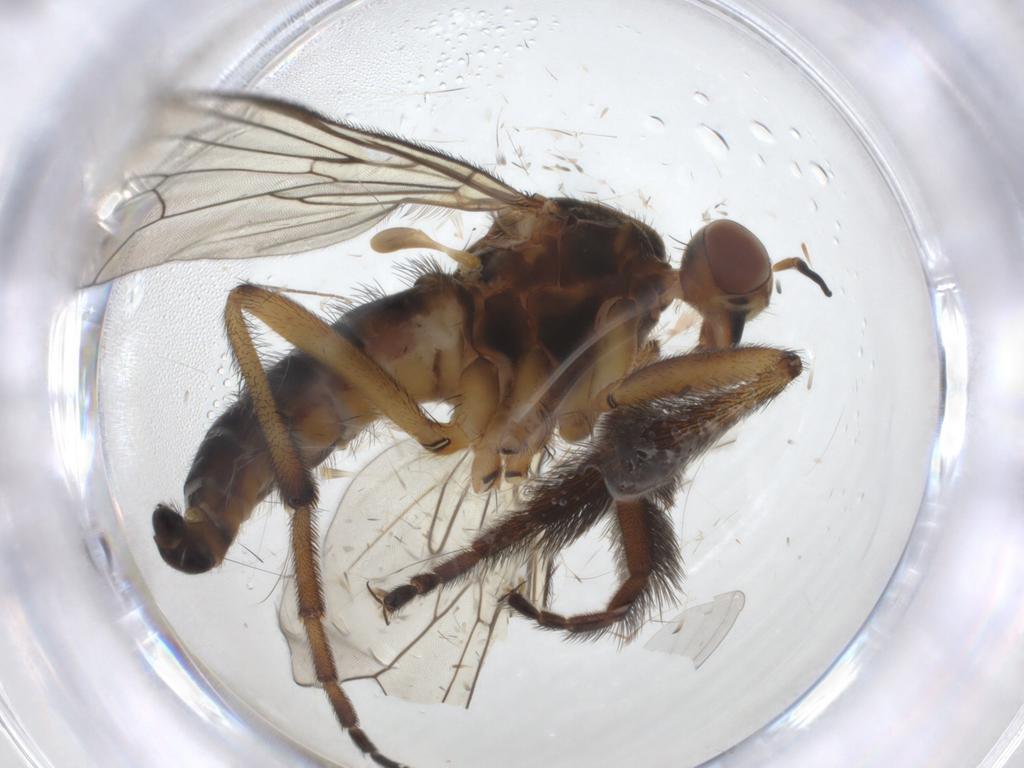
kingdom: Animalia
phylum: Arthropoda
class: Insecta
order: Diptera
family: Empididae
